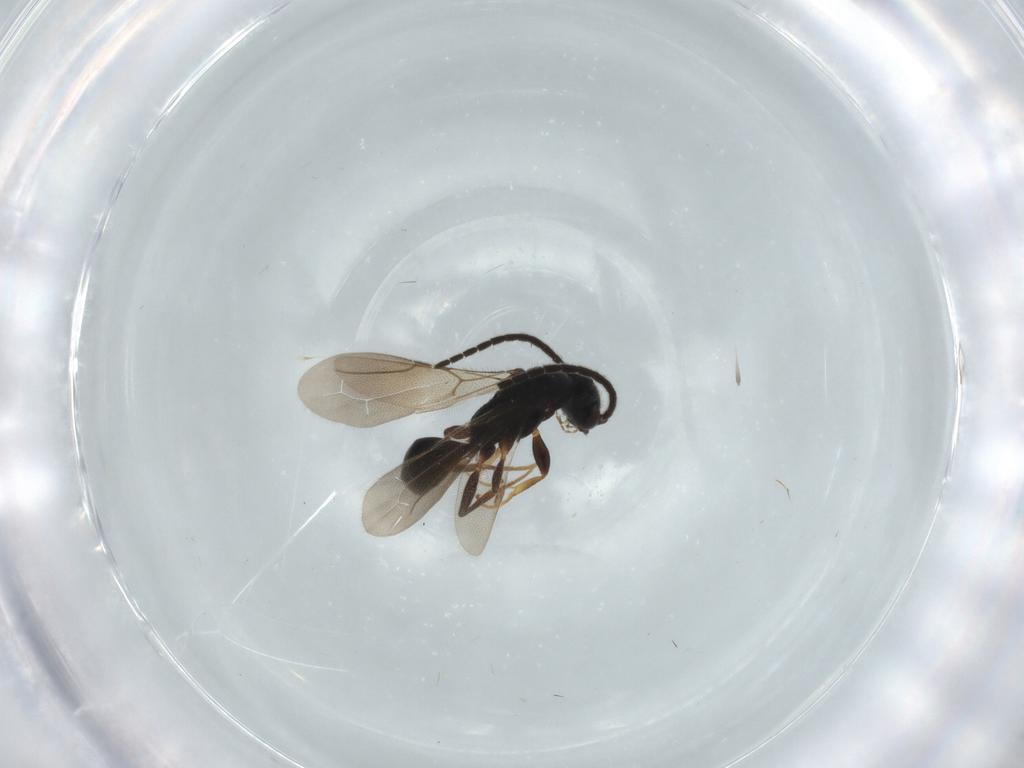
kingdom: Animalia
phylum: Arthropoda
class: Insecta
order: Hymenoptera
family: Bethylidae
